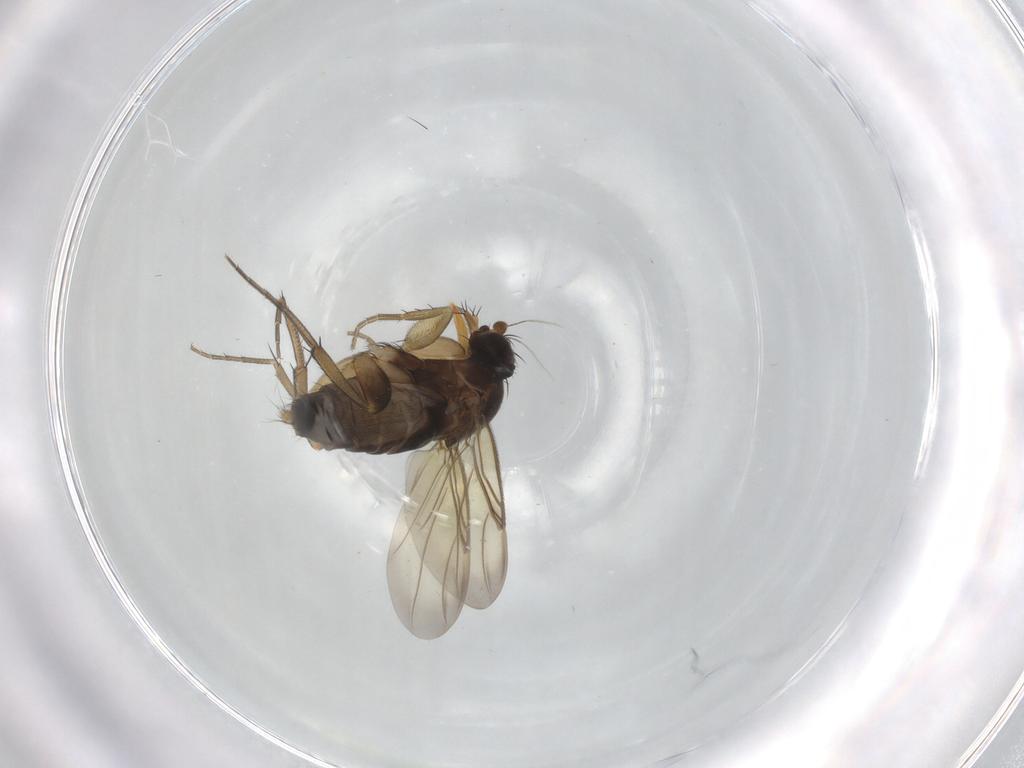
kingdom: Animalia
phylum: Arthropoda
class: Insecta
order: Diptera
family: Phoridae
